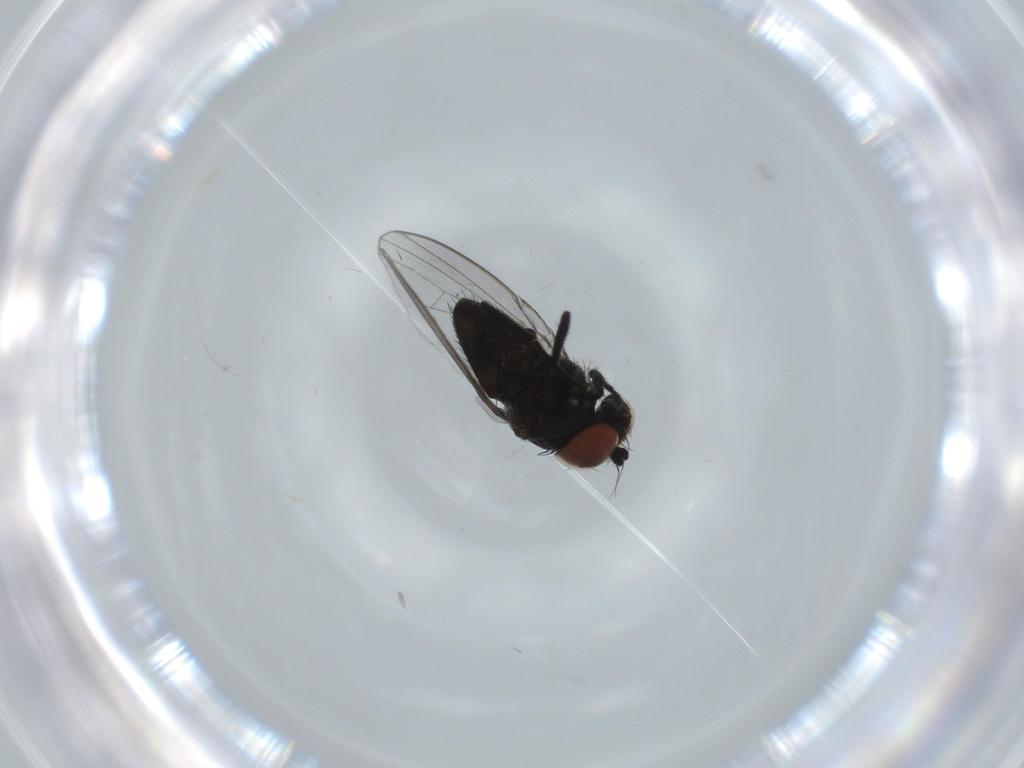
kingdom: Animalia
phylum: Arthropoda
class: Insecta
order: Diptera
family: Milichiidae
